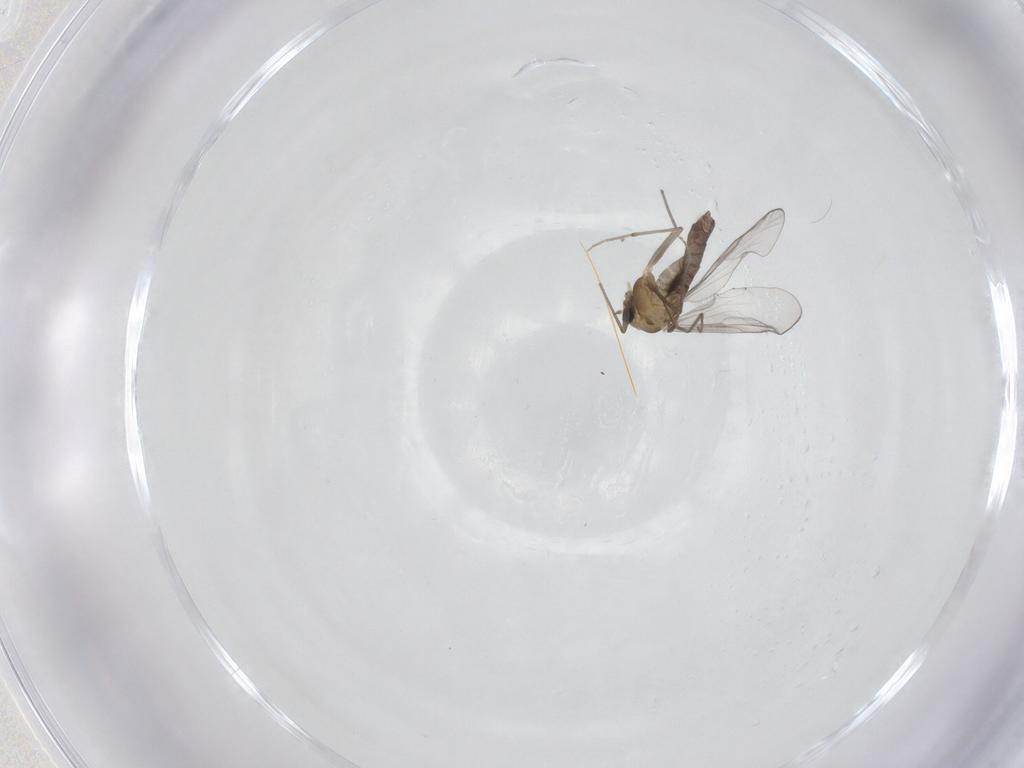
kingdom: Animalia
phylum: Arthropoda
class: Insecta
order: Diptera
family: Chironomidae
